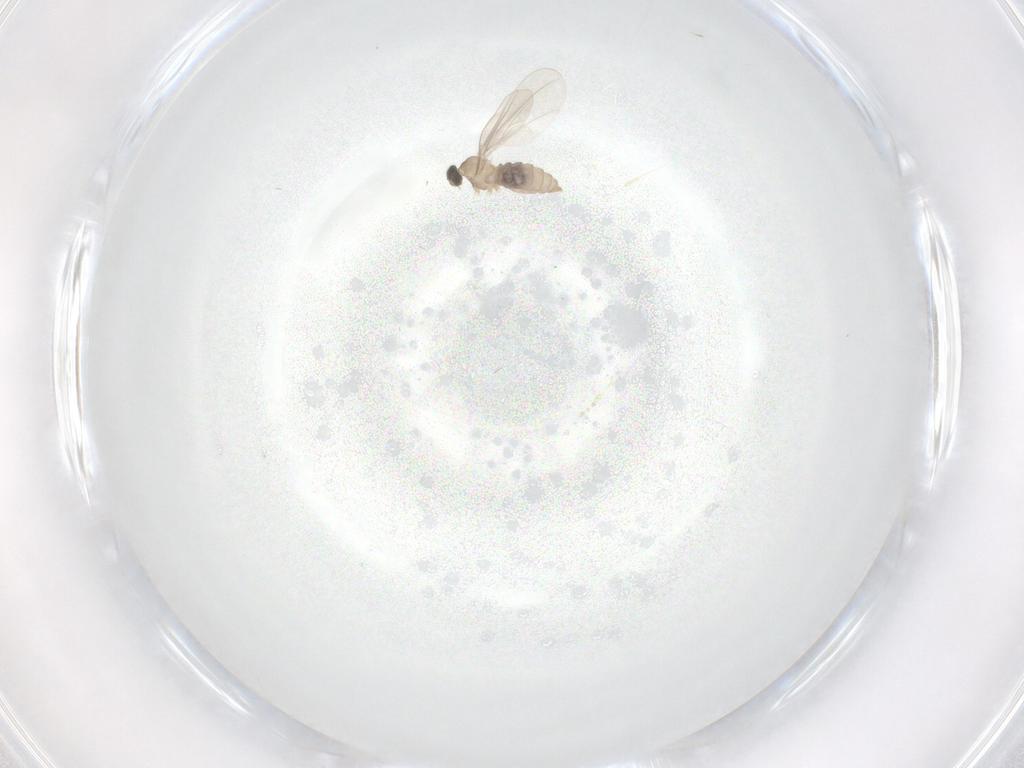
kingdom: Animalia
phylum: Arthropoda
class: Insecta
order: Diptera
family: Cecidomyiidae
